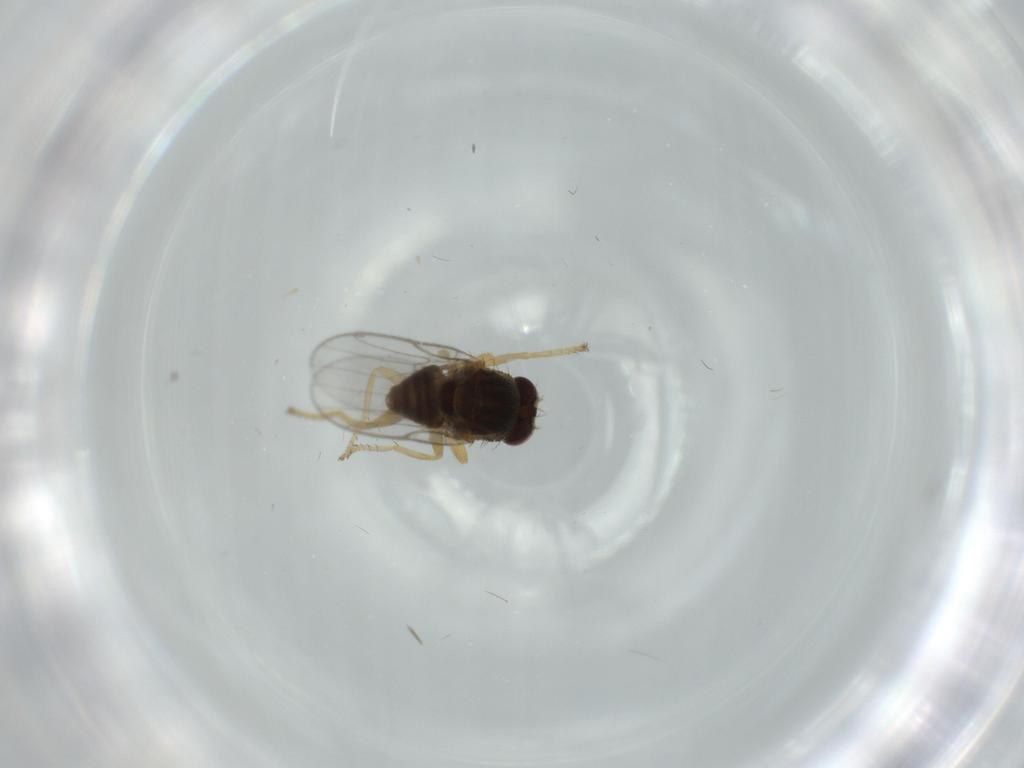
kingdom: Animalia
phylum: Arthropoda
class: Insecta
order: Diptera
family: Chloropidae
